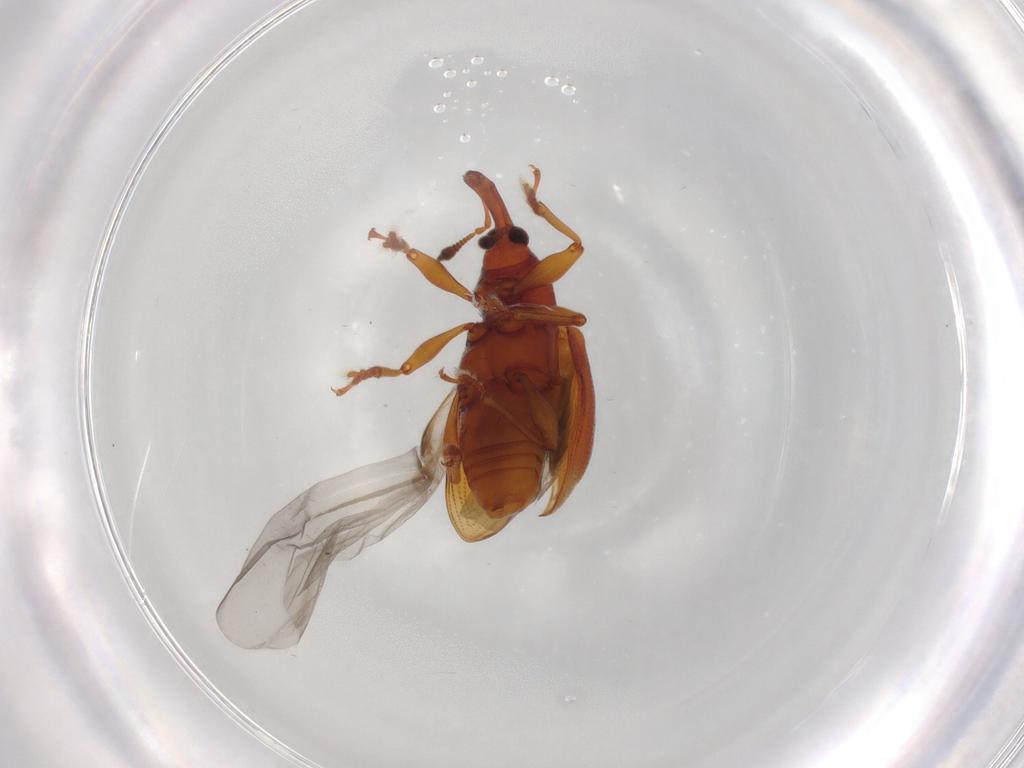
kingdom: Animalia
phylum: Arthropoda
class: Insecta
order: Coleoptera
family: Curculionidae
